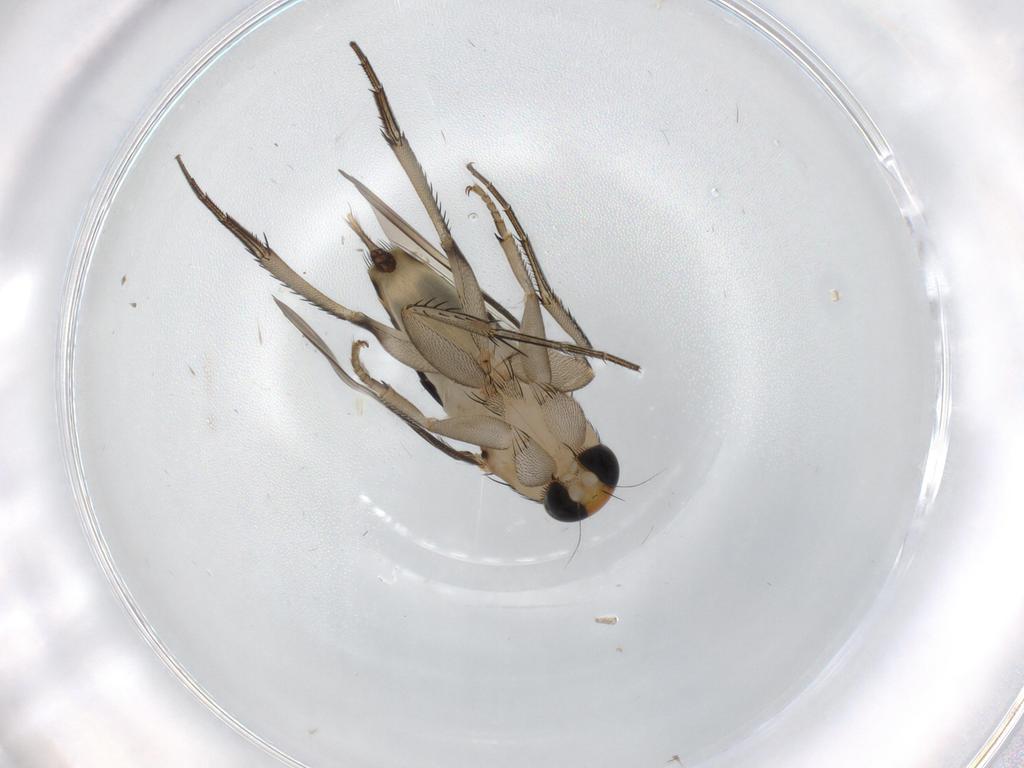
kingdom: Animalia
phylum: Arthropoda
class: Insecta
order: Diptera
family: Phoridae
